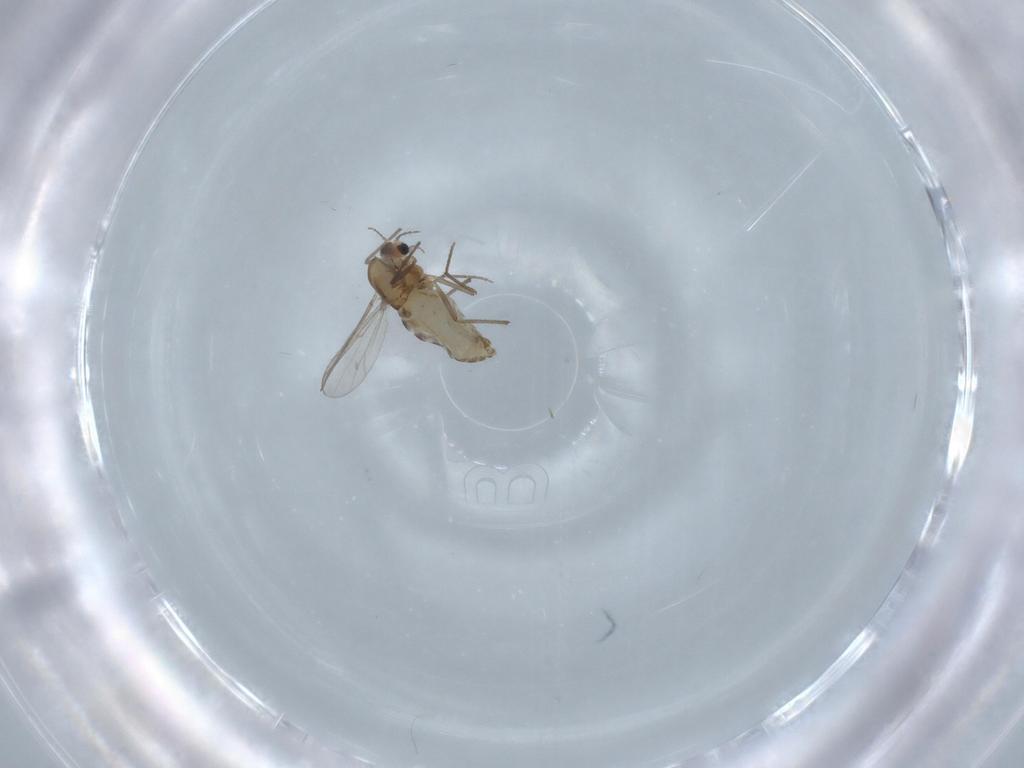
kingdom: Animalia
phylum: Arthropoda
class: Insecta
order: Diptera
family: Chironomidae
